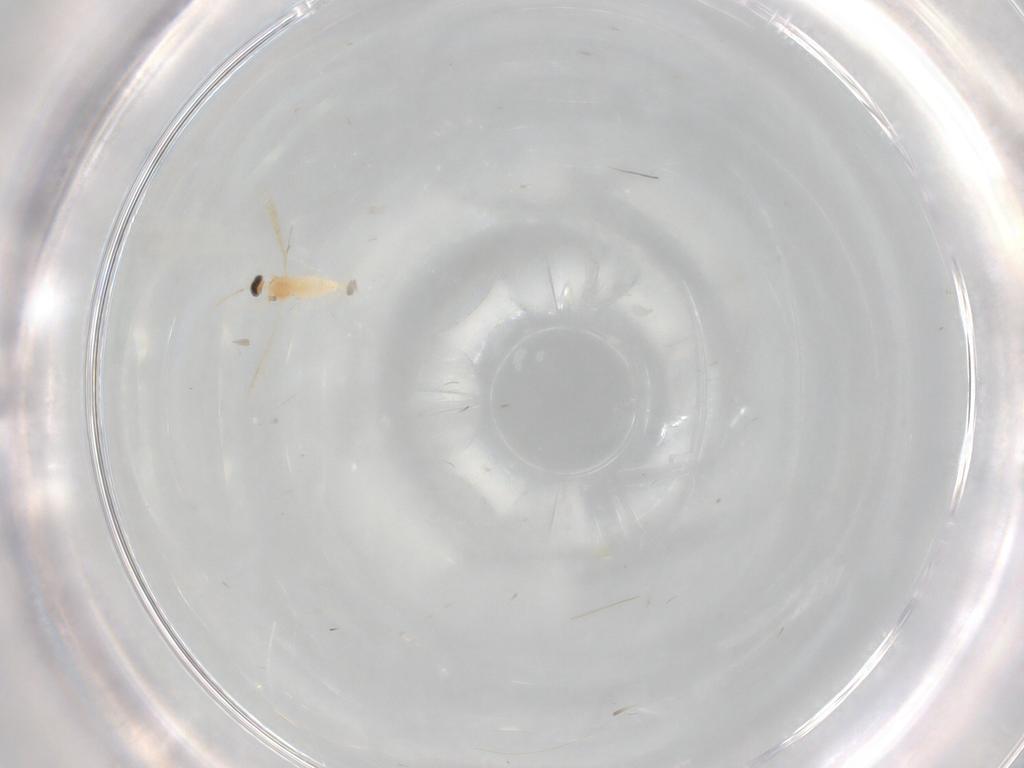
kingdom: Animalia
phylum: Arthropoda
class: Insecta
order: Diptera
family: Cecidomyiidae
